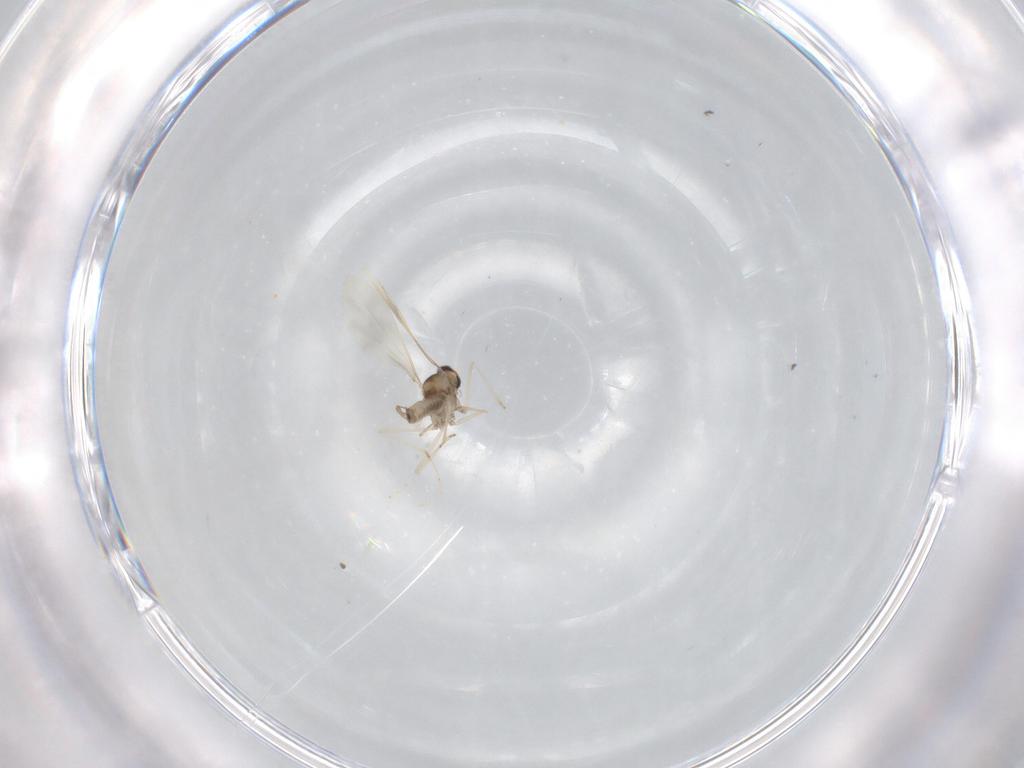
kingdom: Animalia
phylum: Arthropoda
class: Insecta
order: Diptera
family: Cecidomyiidae
